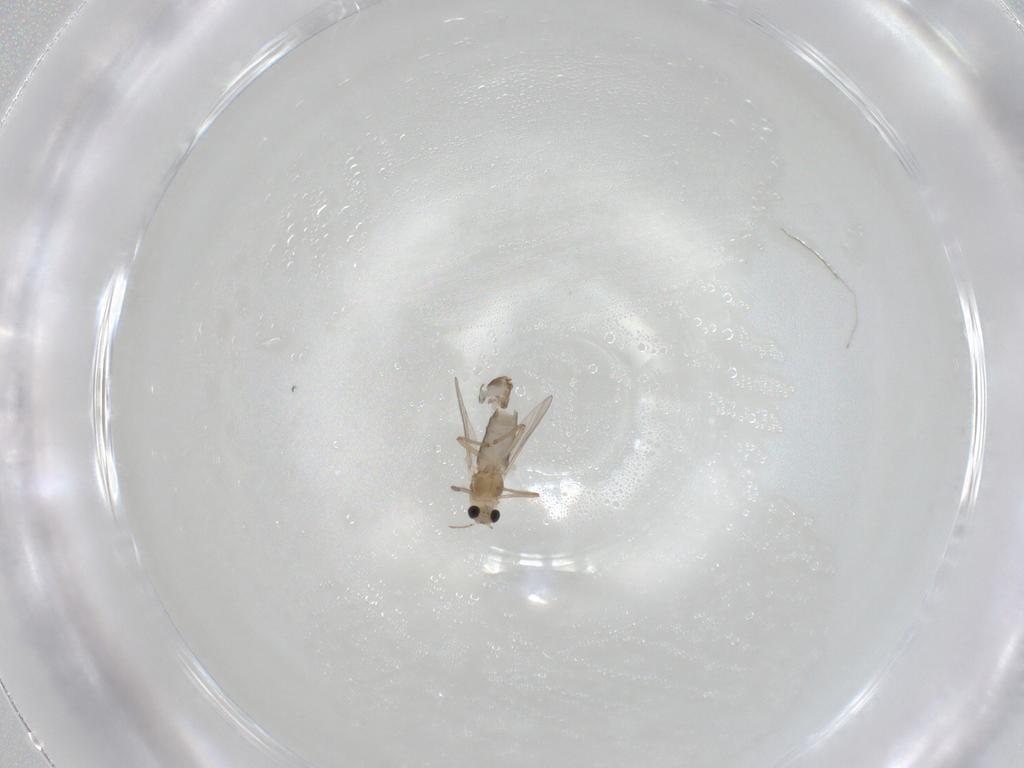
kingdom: Animalia
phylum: Arthropoda
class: Insecta
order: Diptera
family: Chironomidae
